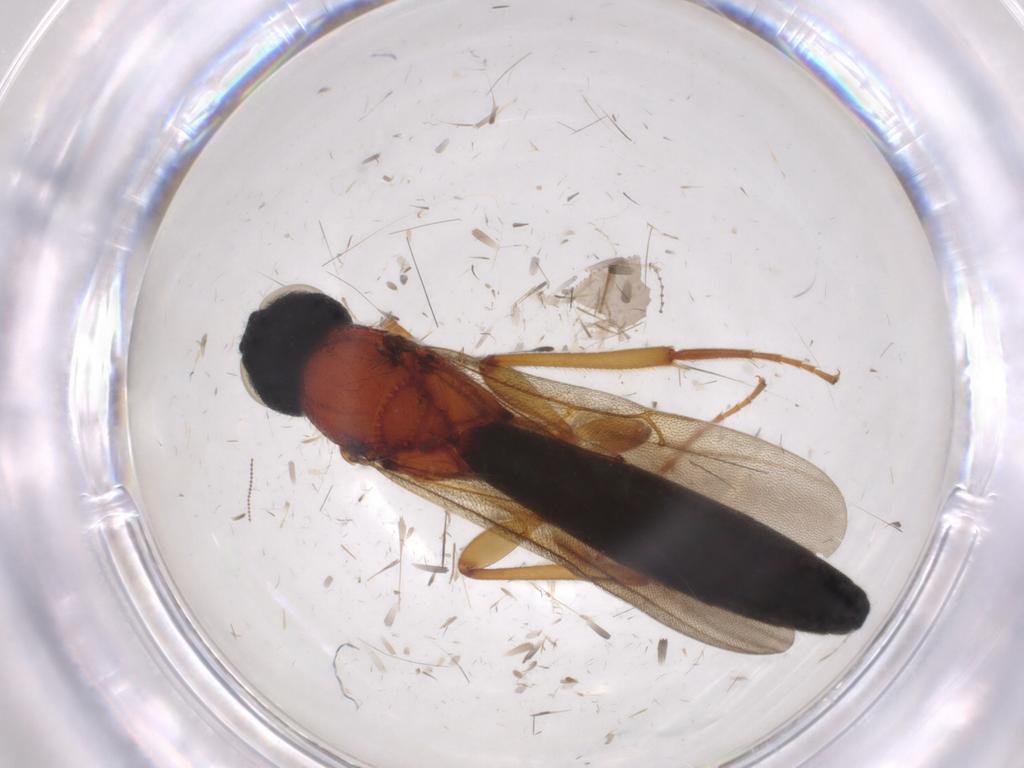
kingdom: Animalia
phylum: Arthropoda
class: Insecta
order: Hymenoptera
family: Scelionidae
